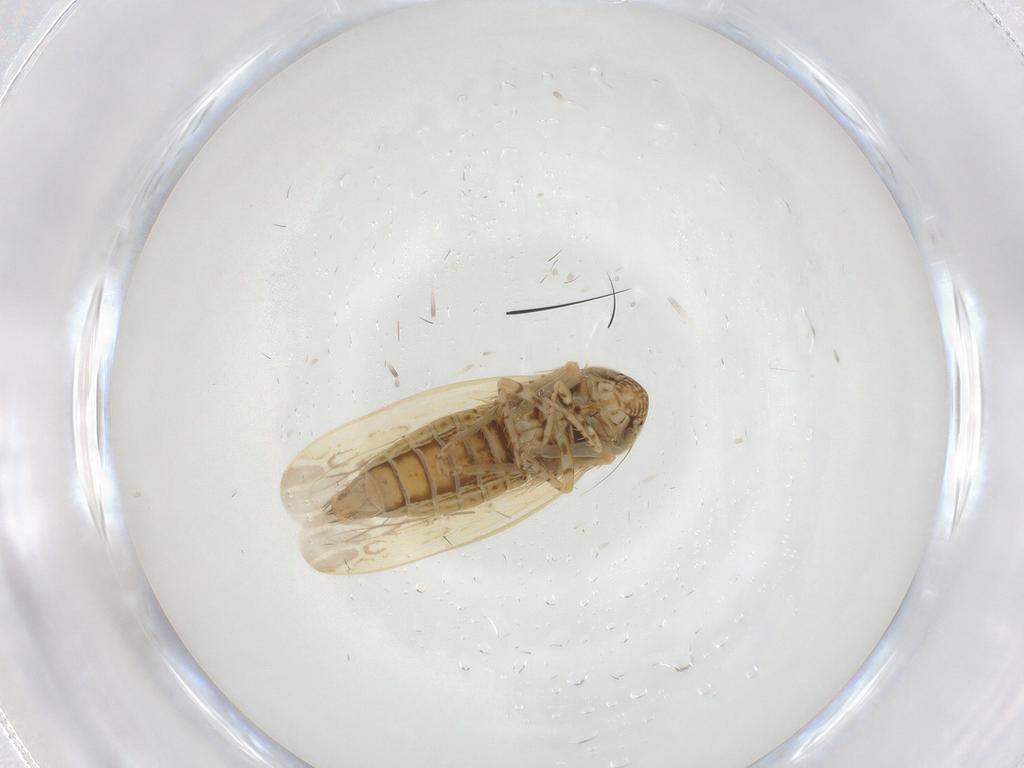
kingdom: Animalia
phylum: Arthropoda
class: Insecta
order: Hemiptera
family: Cicadellidae
